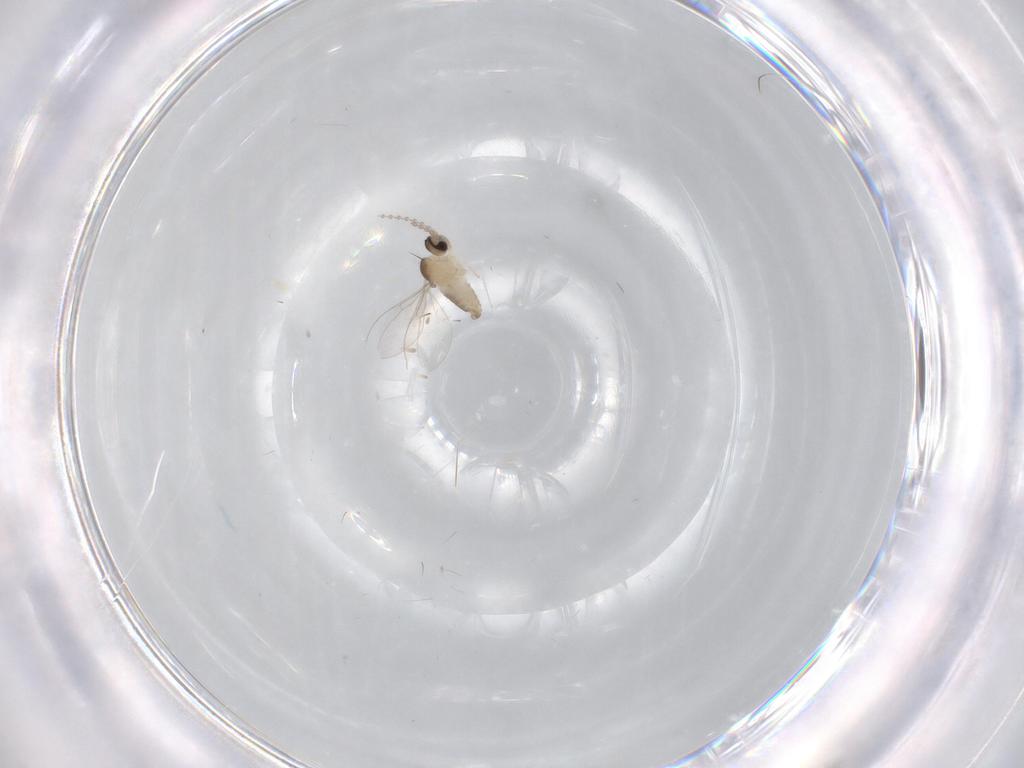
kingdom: Animalia
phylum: Arthropoda
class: Insecta
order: Diptera
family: Cecidomyiidae
